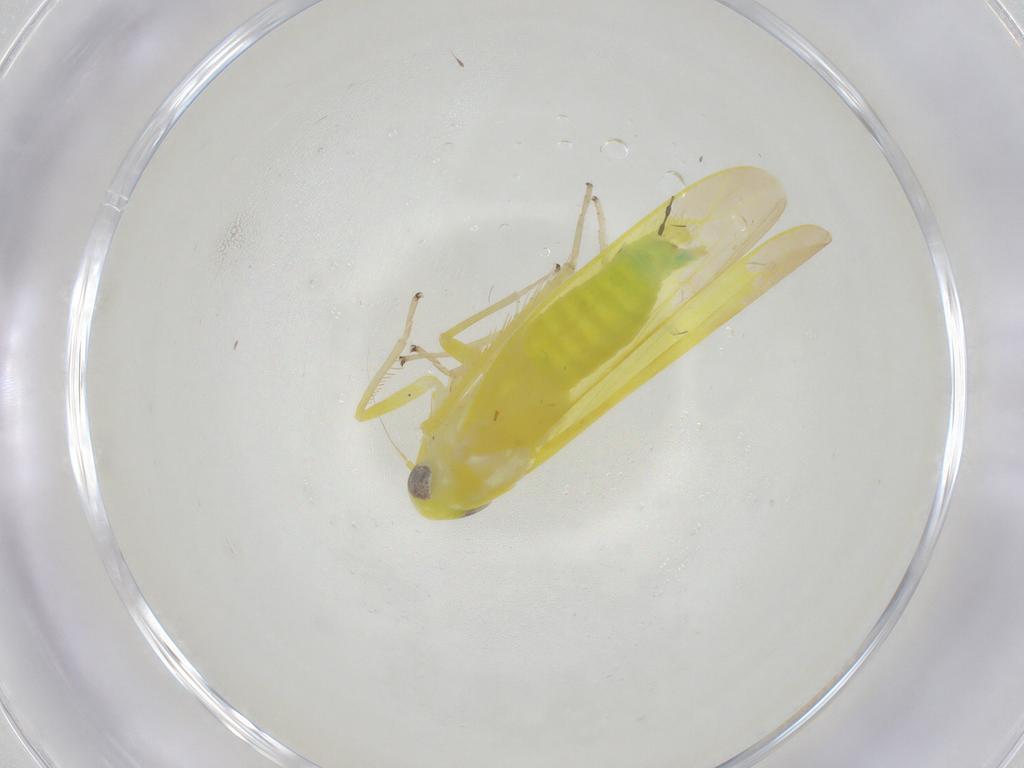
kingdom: Animalia
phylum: Arthropoda
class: Insecta
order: Hemiptera
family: Cicadellidae
